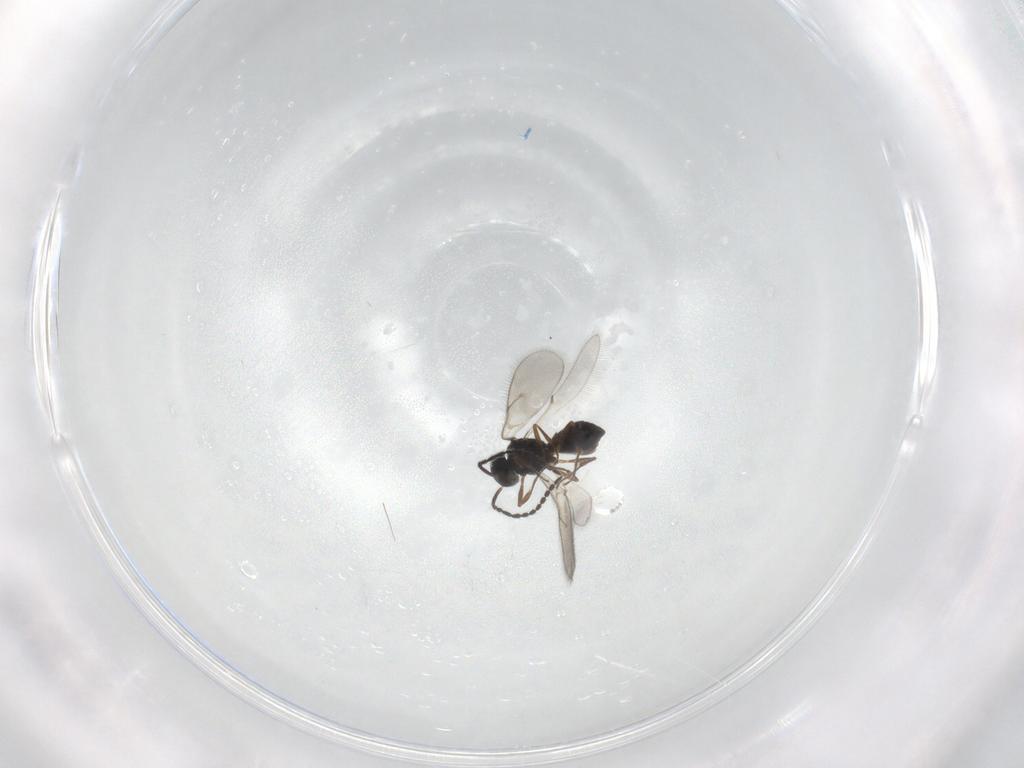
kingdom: Animalia
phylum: Arthropoda
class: Insecta
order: Hymenoptera
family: Scelionidae
